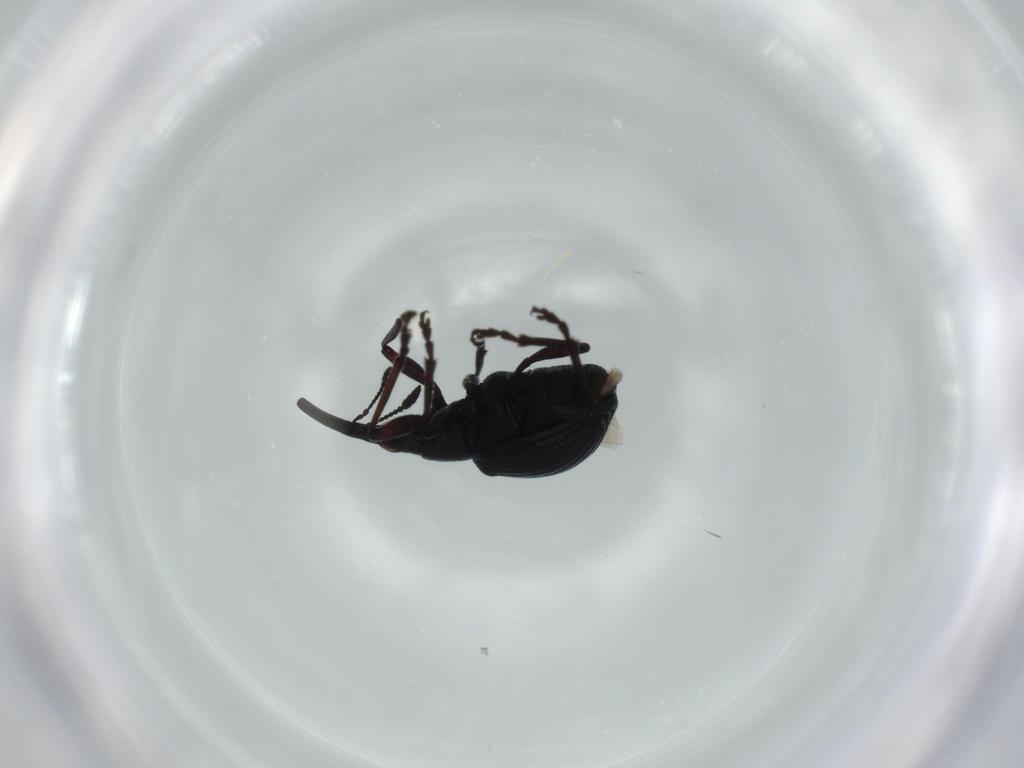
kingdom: Animalia
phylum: Arthropoda
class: Insecta
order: Coleoptera
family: Brentidae
